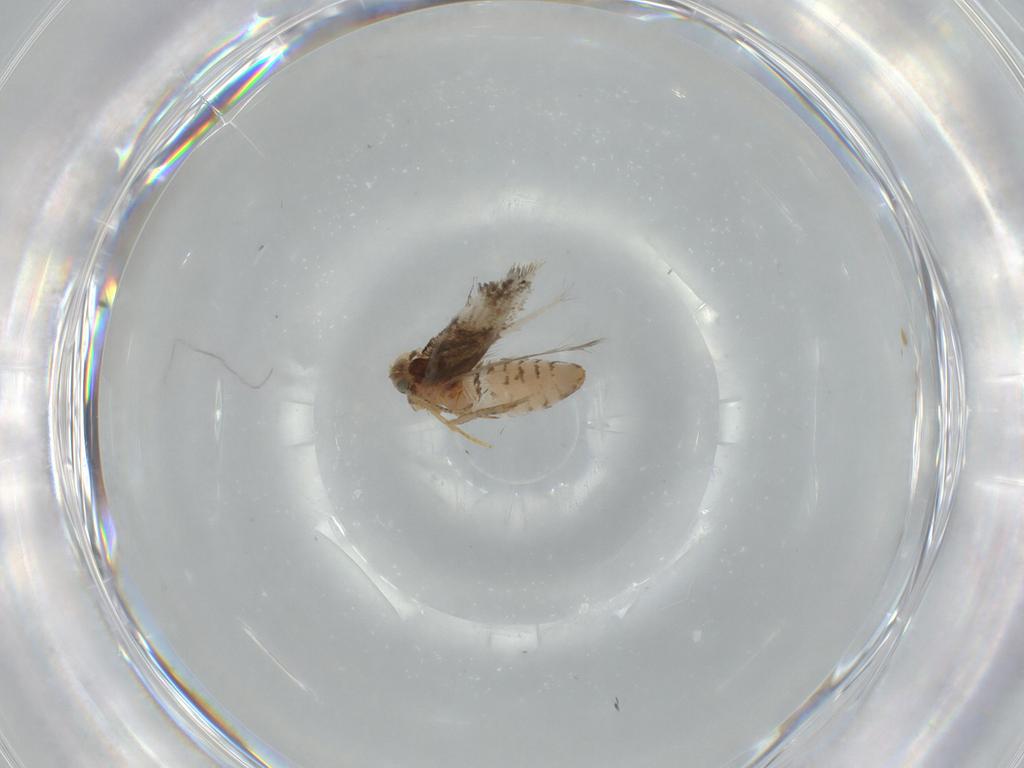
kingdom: Animalia
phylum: Arthropoda
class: Insecta
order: Lepidoptera
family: Nepticulidae
